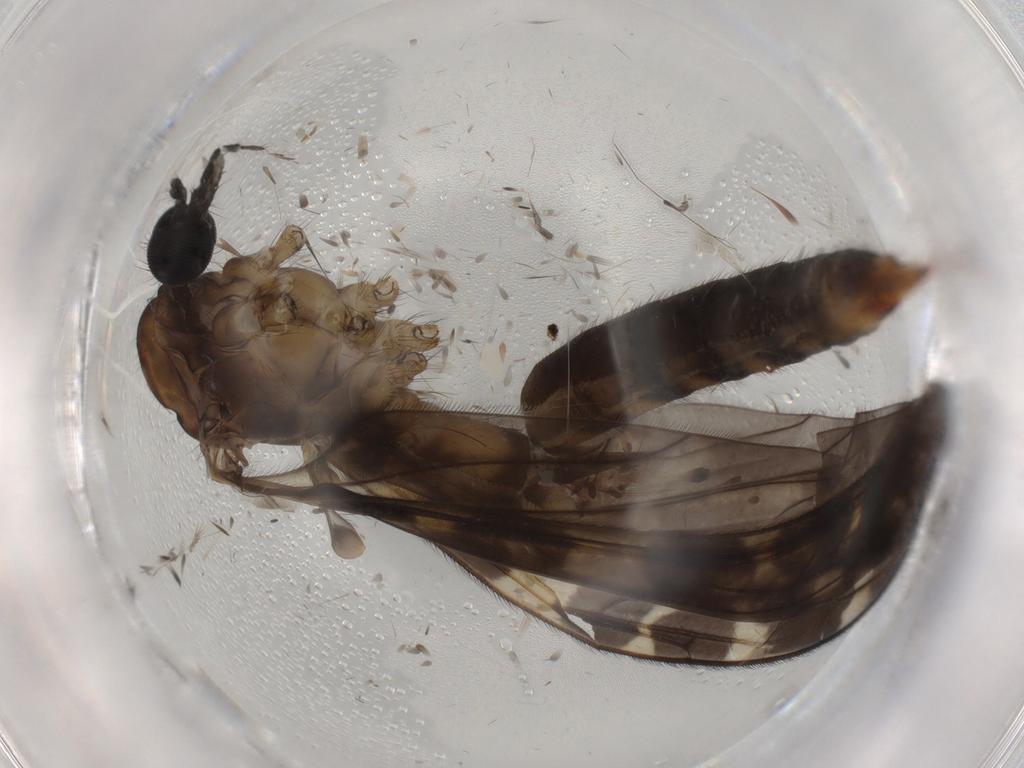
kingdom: Animalia
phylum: Arthropoda
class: Insecta
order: Diptera
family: Limoniidae
